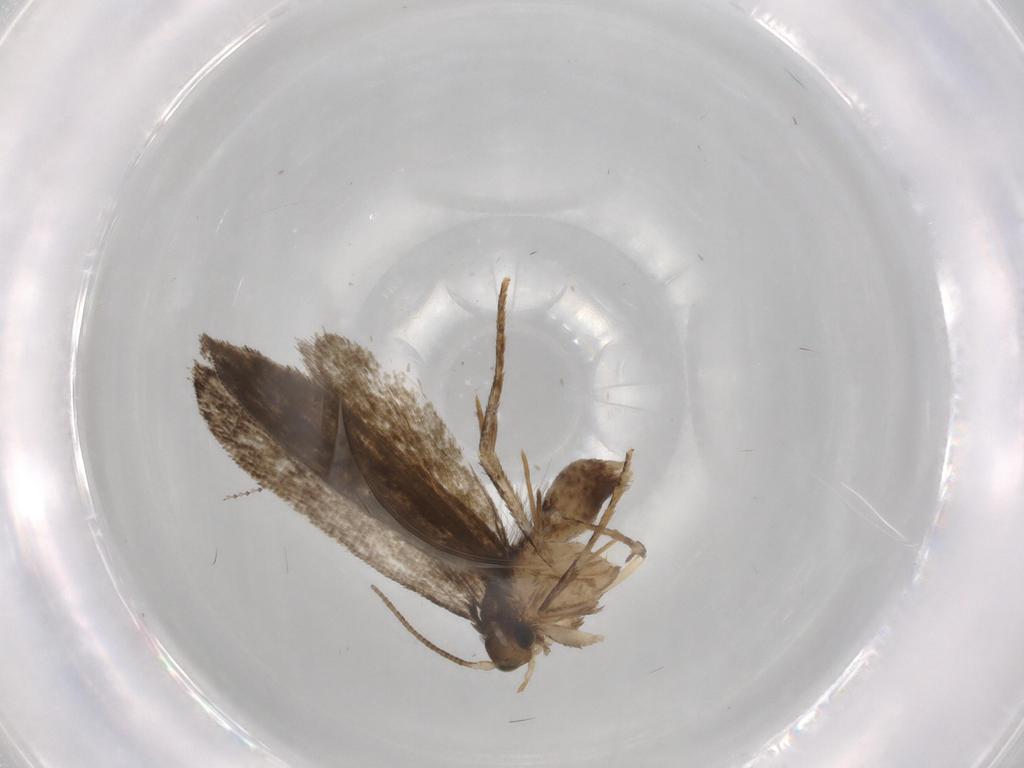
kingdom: Animalia
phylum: Arthropoda
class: Insecta
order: Lepidoptera
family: Tineidae
